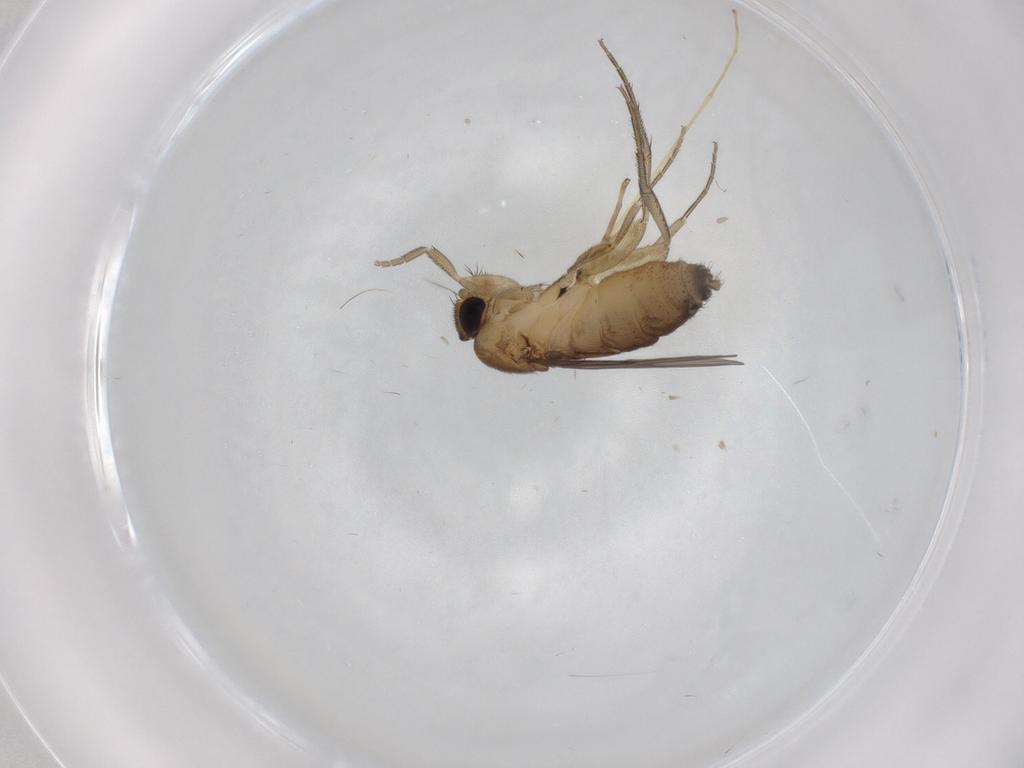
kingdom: Animalia
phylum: Arthropoda
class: Insecta
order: Diptera
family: Phoridae
